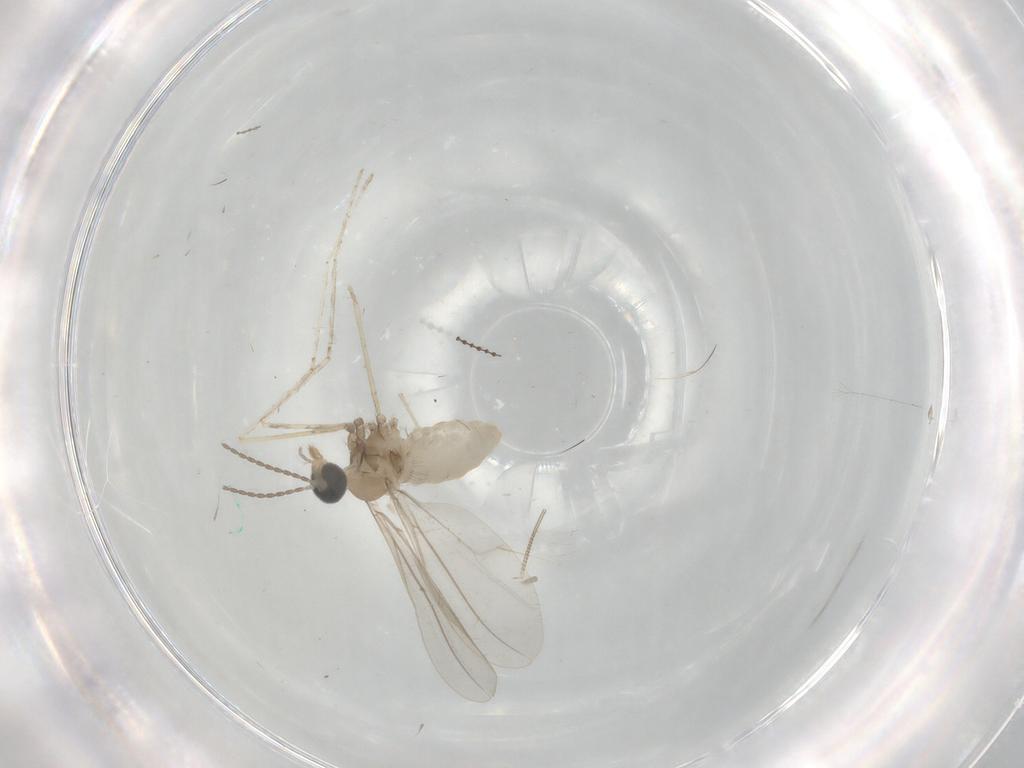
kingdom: Animalia
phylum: Arthropoda
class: Insecta
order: Diptera
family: Cecidomyiidae
